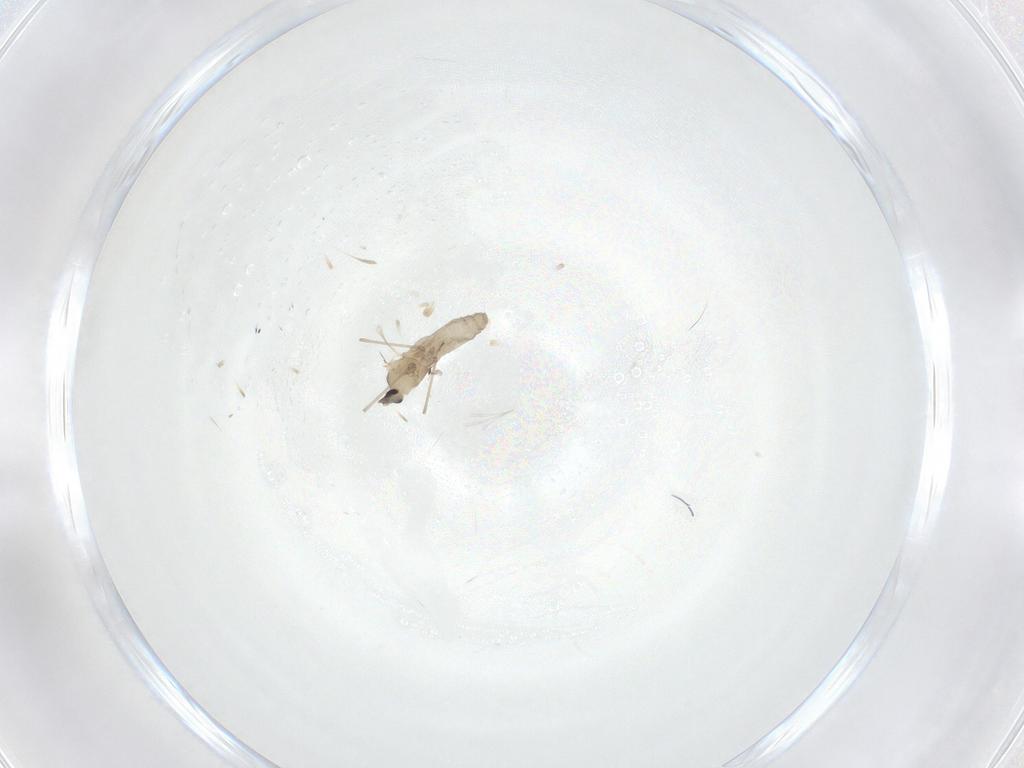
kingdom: Animalia
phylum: Arthropoda
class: Insecta
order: Diptera
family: Cecidomyiidae
